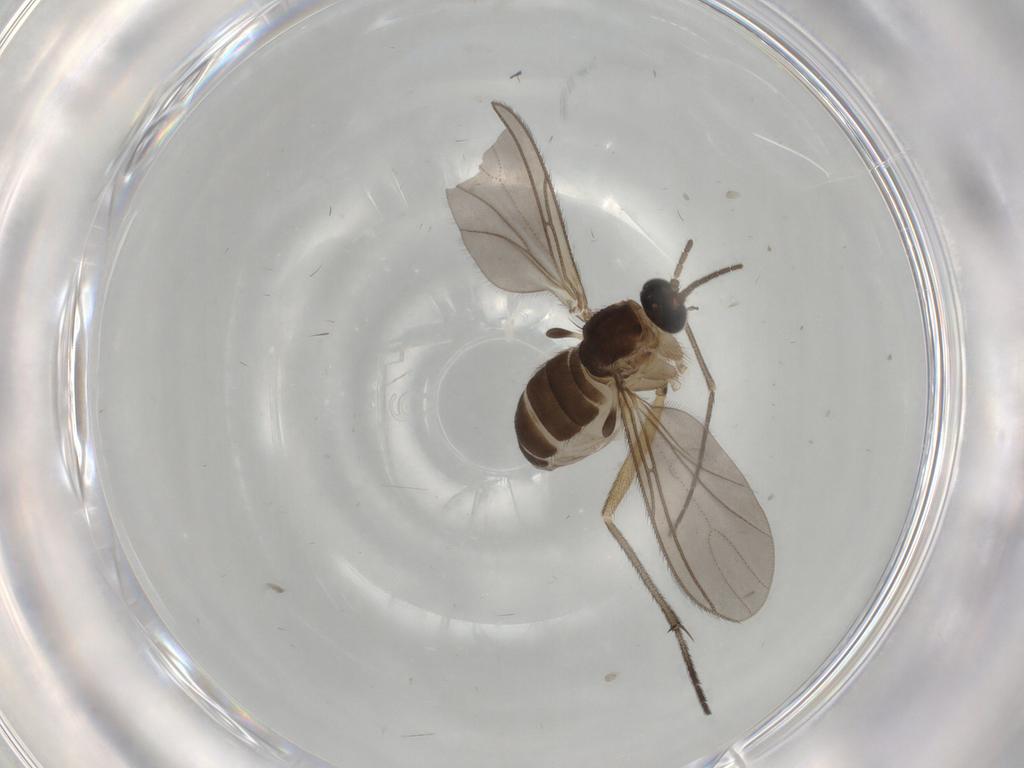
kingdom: Animalia
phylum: Arthropoda
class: Insecta
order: Diptera
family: Sciaridae
